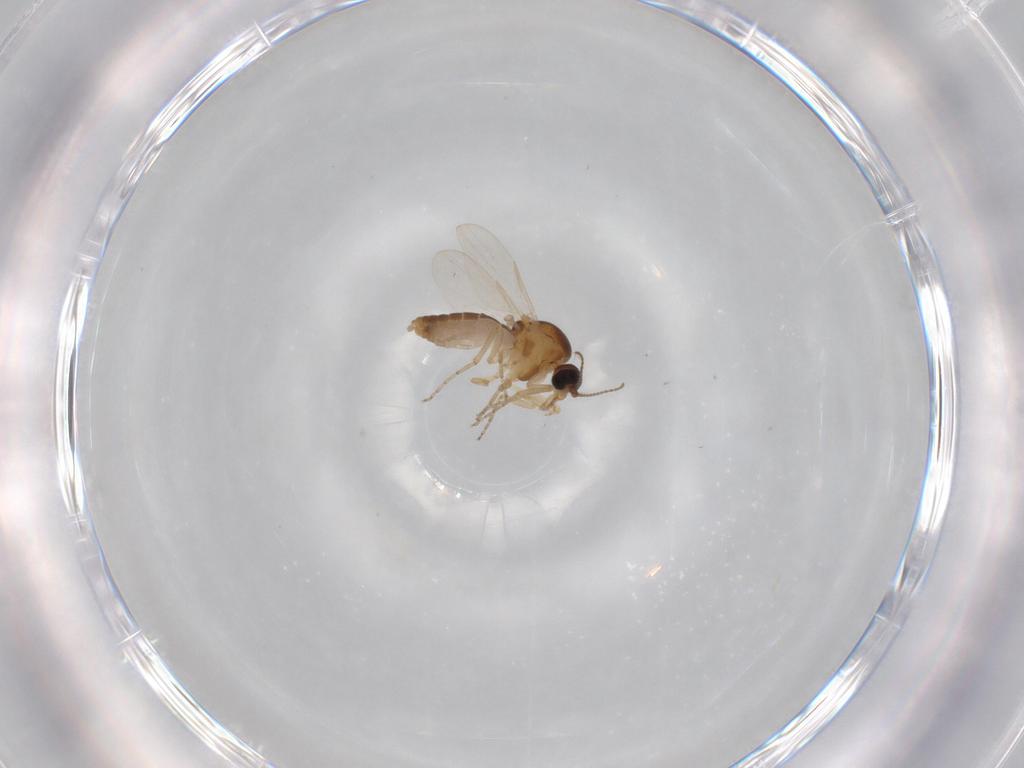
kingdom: Animalia
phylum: Arthropoda
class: Insecta
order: Diptera
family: Ceratopogonidae
